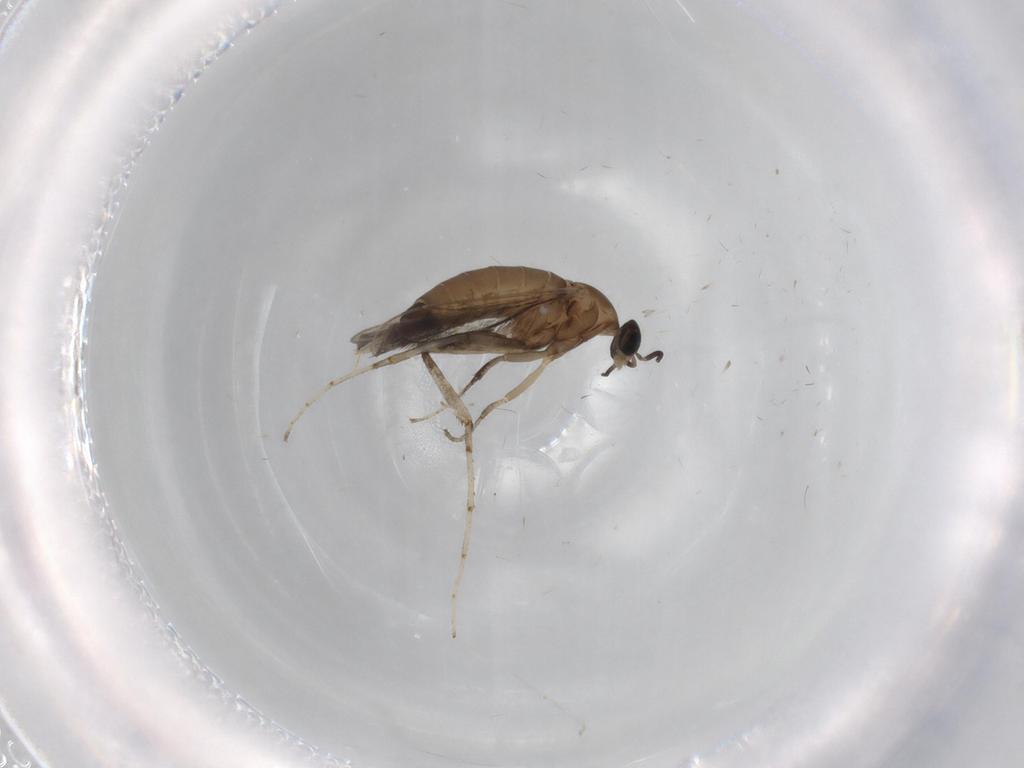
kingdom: Animalia
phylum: Arthropoda
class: Insecta
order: Diptera
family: Cecidomyiidae
